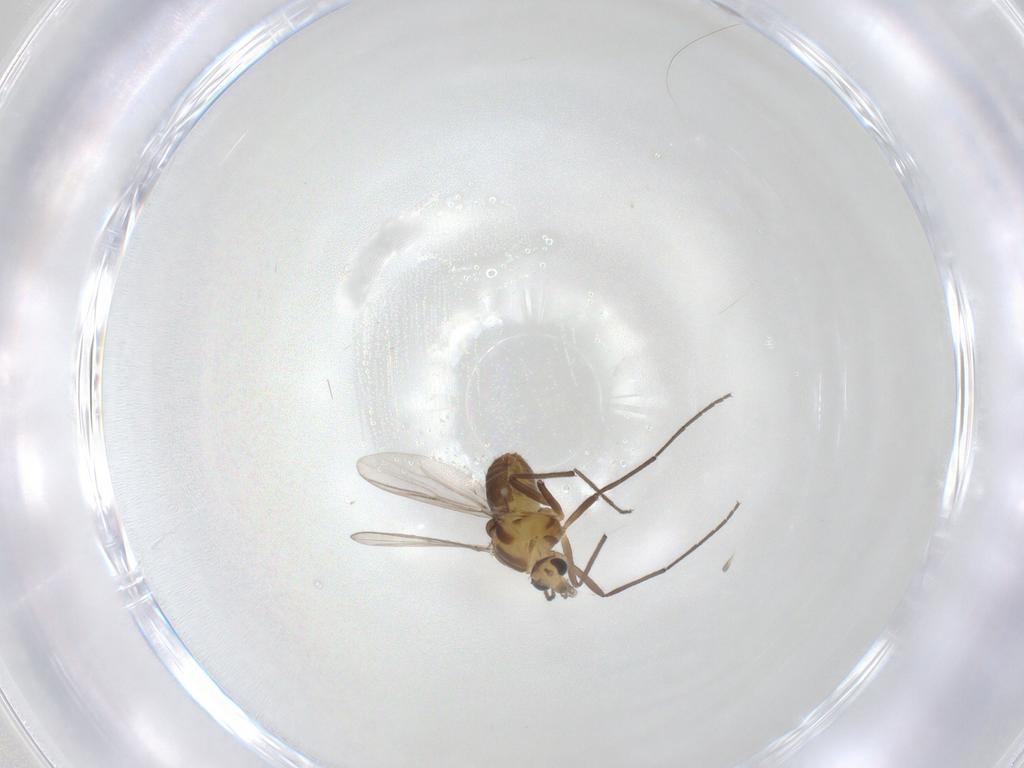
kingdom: Animalia
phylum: Arthropoda
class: Insecta
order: Diptera
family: Chironomidae
